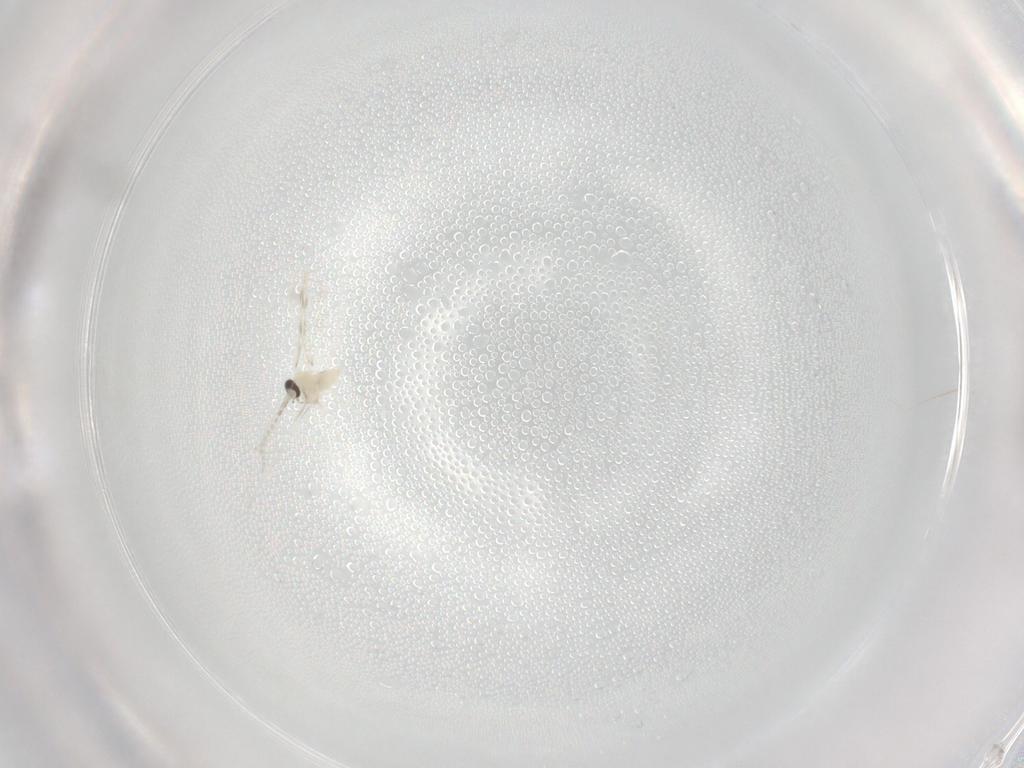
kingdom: Animalia
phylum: Arthropoda
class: Insecta
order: Diptera
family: Cecidomyiidae
